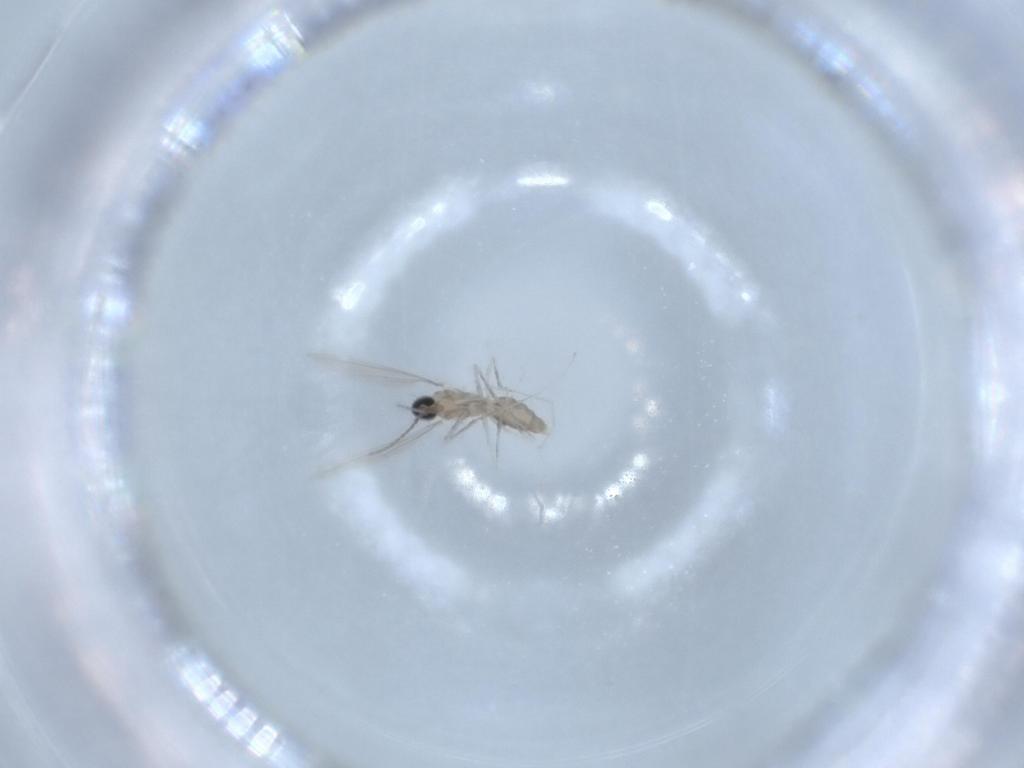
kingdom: Animalia
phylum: Arthropoda
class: Insecta
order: Diptera
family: Cecidomyiidae
